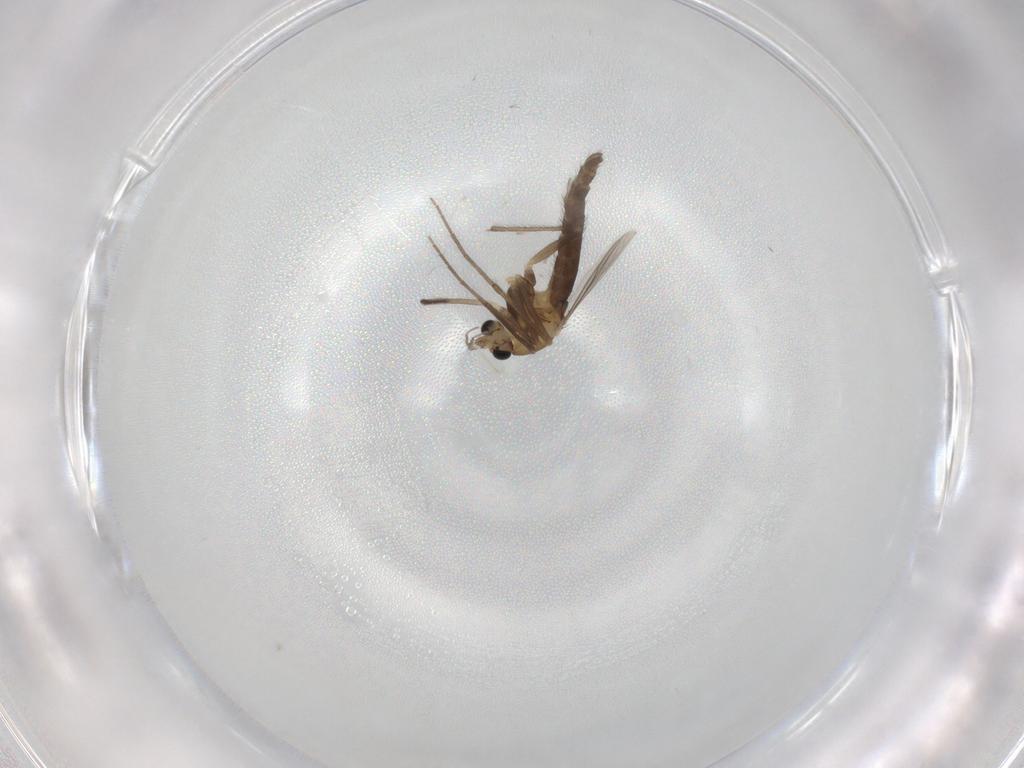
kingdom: Animalia
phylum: Arthropoda
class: Insecta
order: Diptera
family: Chironomidae
